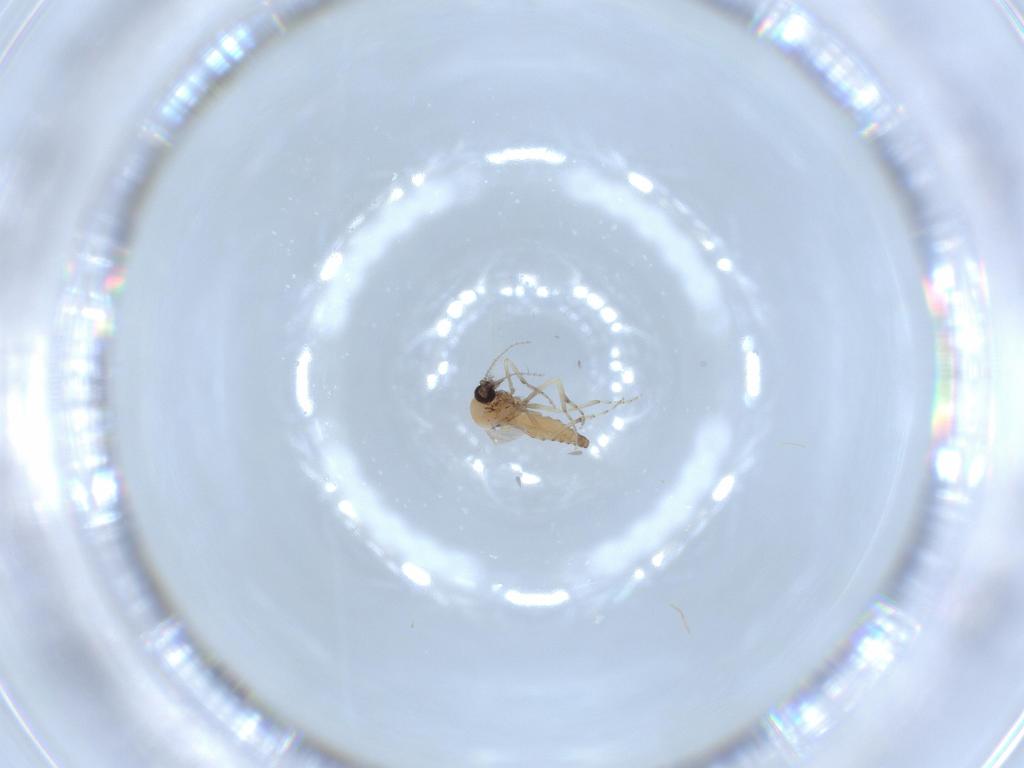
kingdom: Animalia
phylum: Arthropoda
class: Insecta
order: Diptera
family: Ceratopogonidae
